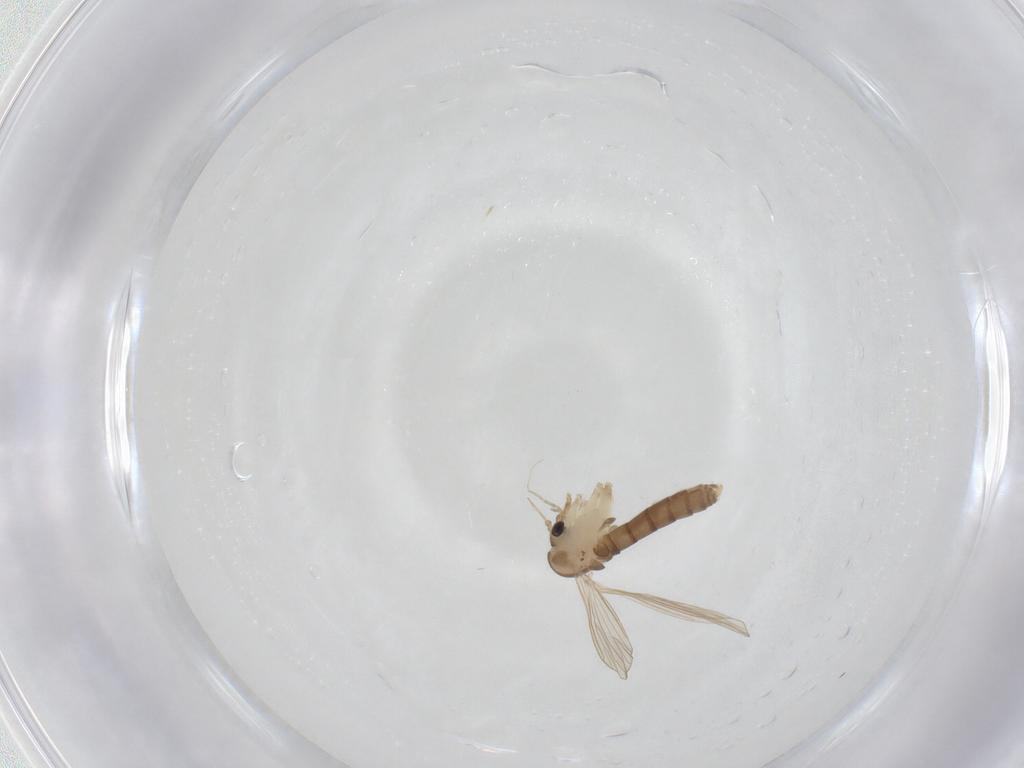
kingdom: Animalia
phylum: Arthropoda
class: Insecta
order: Diptera
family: Psychodidae
